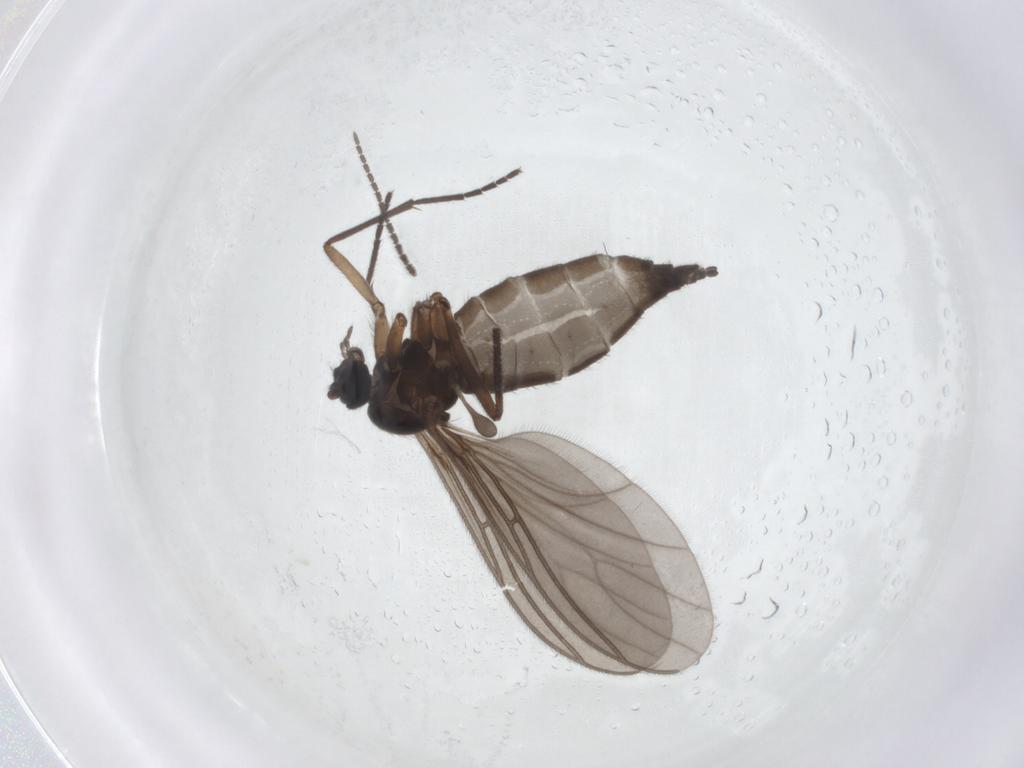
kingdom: Animalia
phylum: Arthropoda
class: Insecta
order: Diptera
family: Sciaridae
